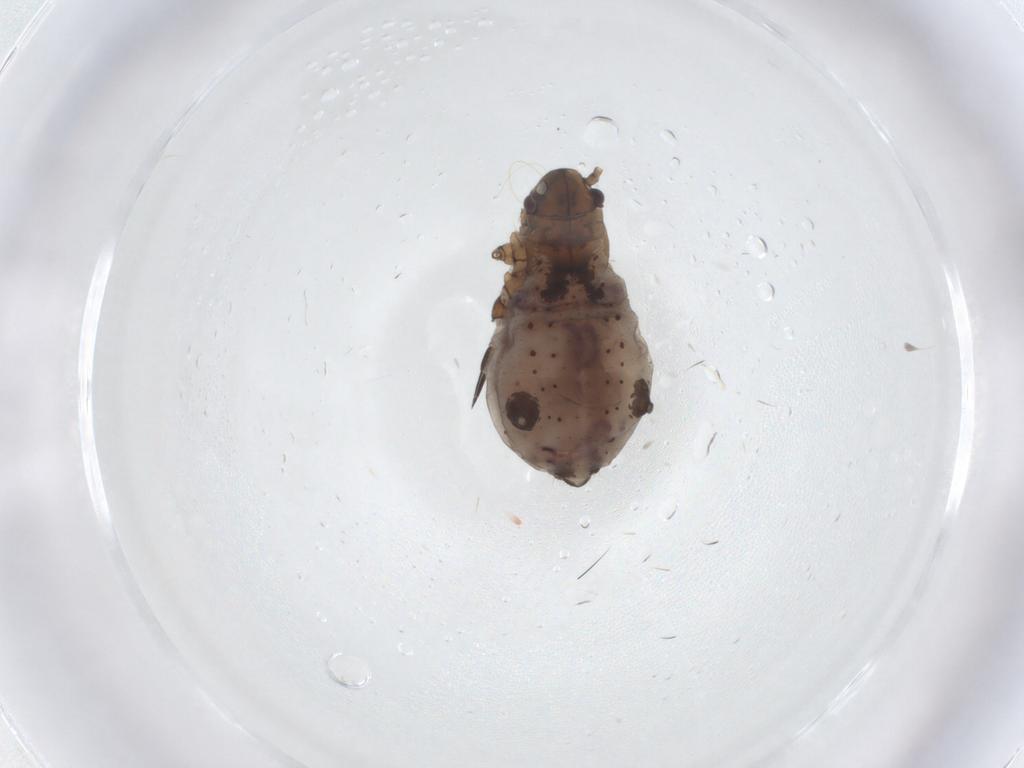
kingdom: Animalia
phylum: Arthropoda
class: Insecta
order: Hemiptera
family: Aphididae
